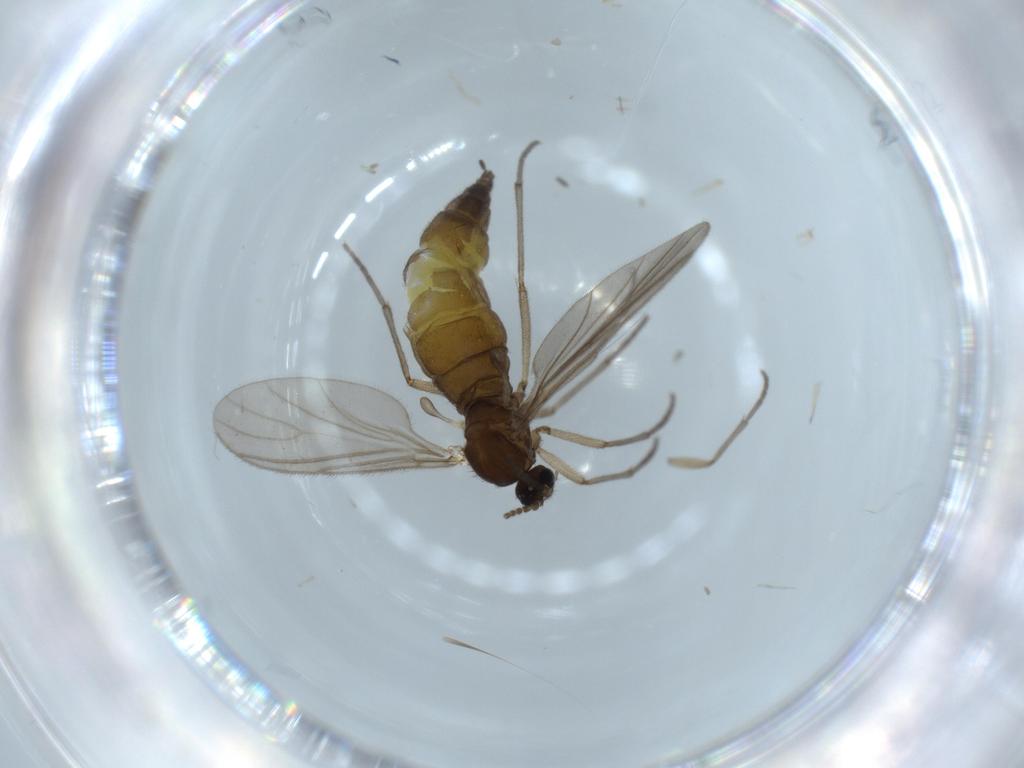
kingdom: Animalia
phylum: Arthropoda
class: Insecta
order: Diptera
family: Sciaridae
